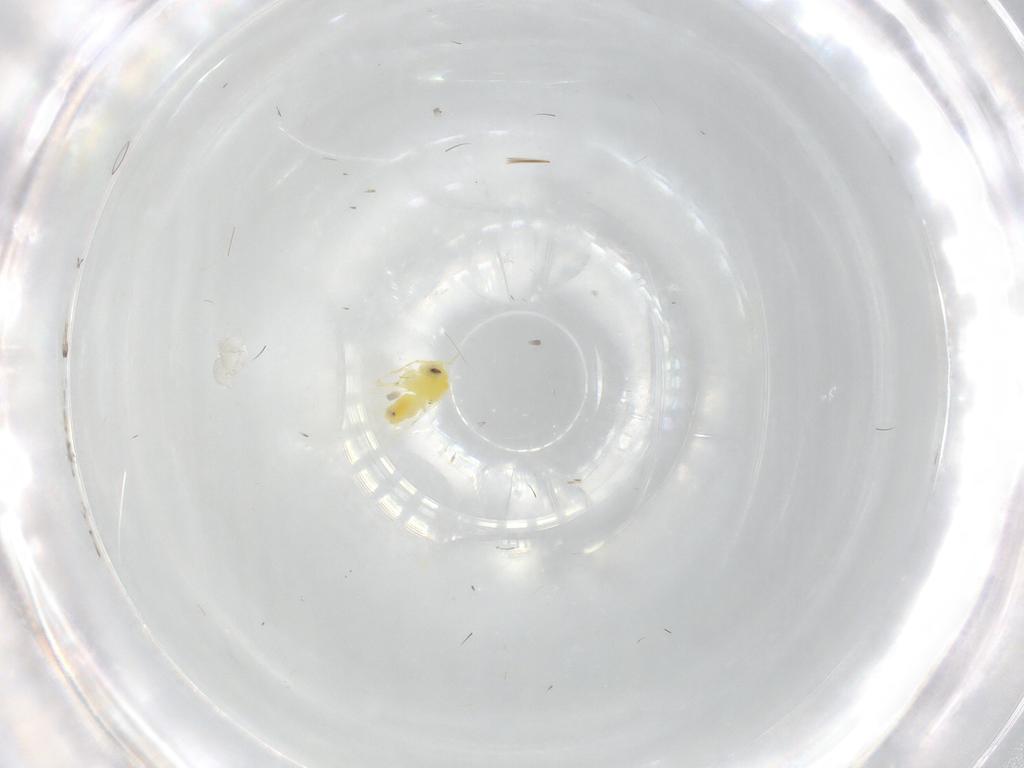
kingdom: Animalia
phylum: Arthropoda
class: Insecta
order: Hemiptera
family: Aleyrodidae
